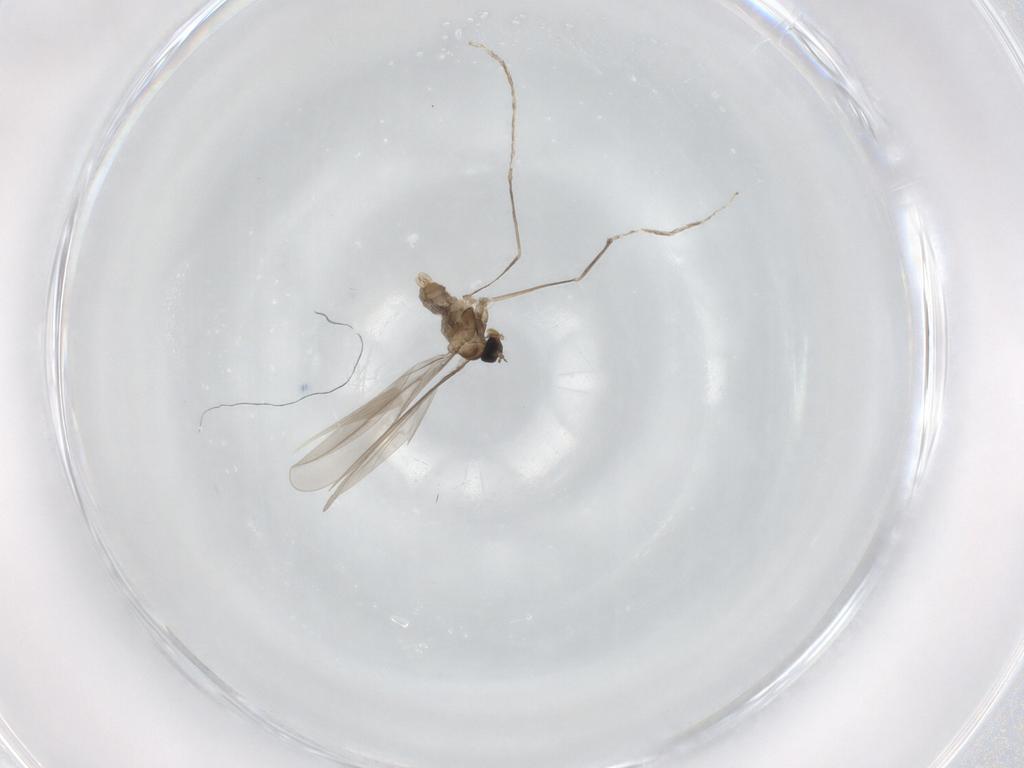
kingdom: Animalia
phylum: Arthropoda
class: Insecta
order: Diptera
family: Cecidomyiidae
